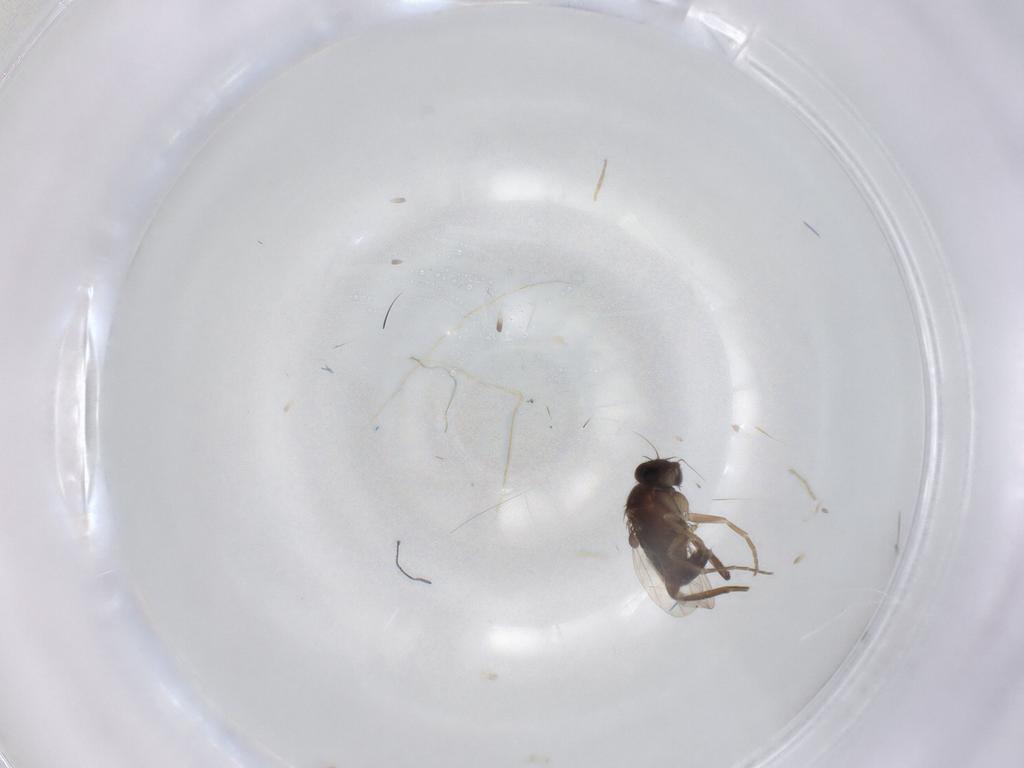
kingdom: Animalia
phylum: Arthropoda
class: Insecta
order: Diptera
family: Phoridae
